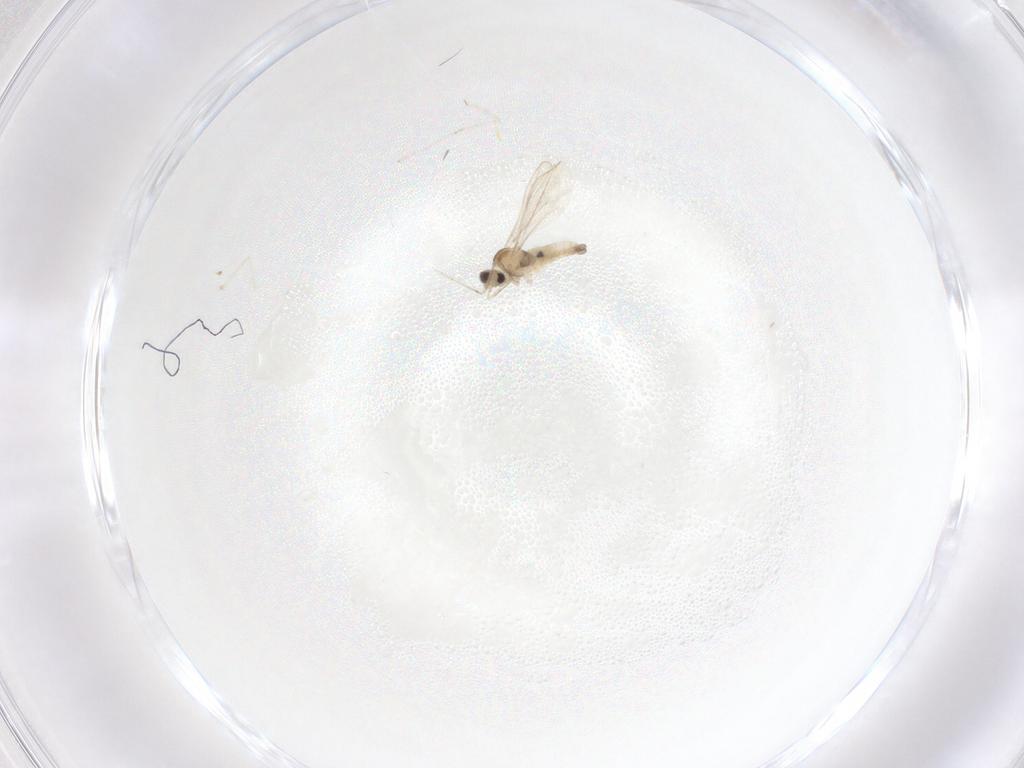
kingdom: Animalia
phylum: Arthropoda
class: Insecta
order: Diptera
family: Cecidomyiidae
